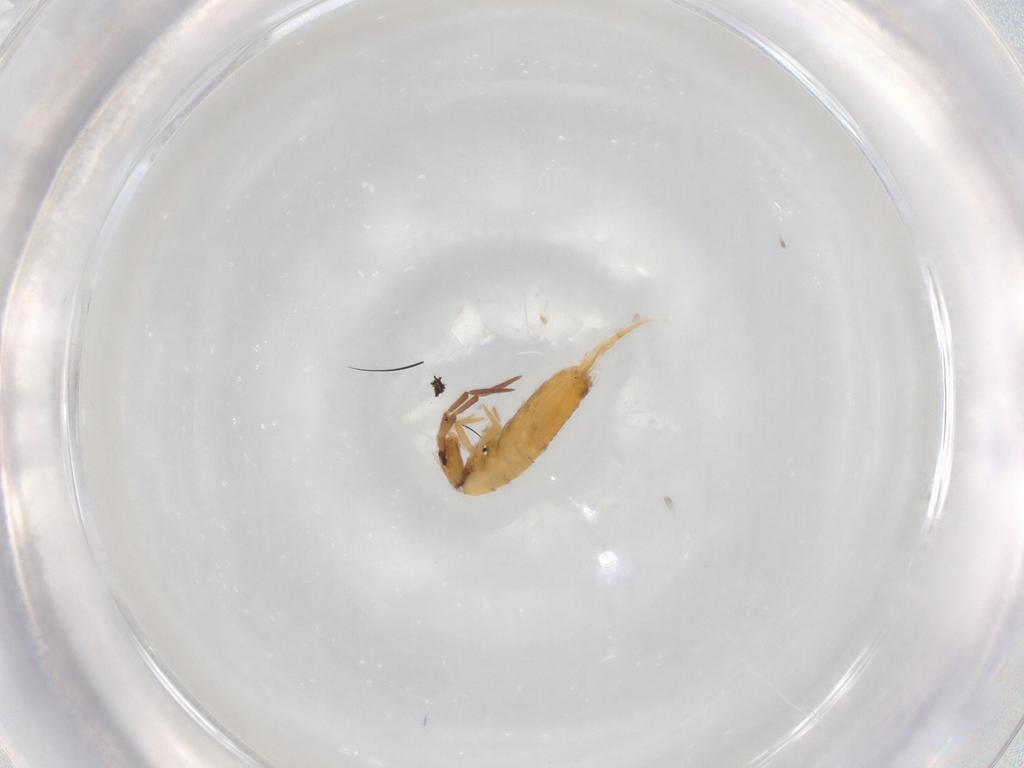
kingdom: Animalia
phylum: Arthropoda
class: Collembola
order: Entomobryomorpha
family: Entomobryidae
